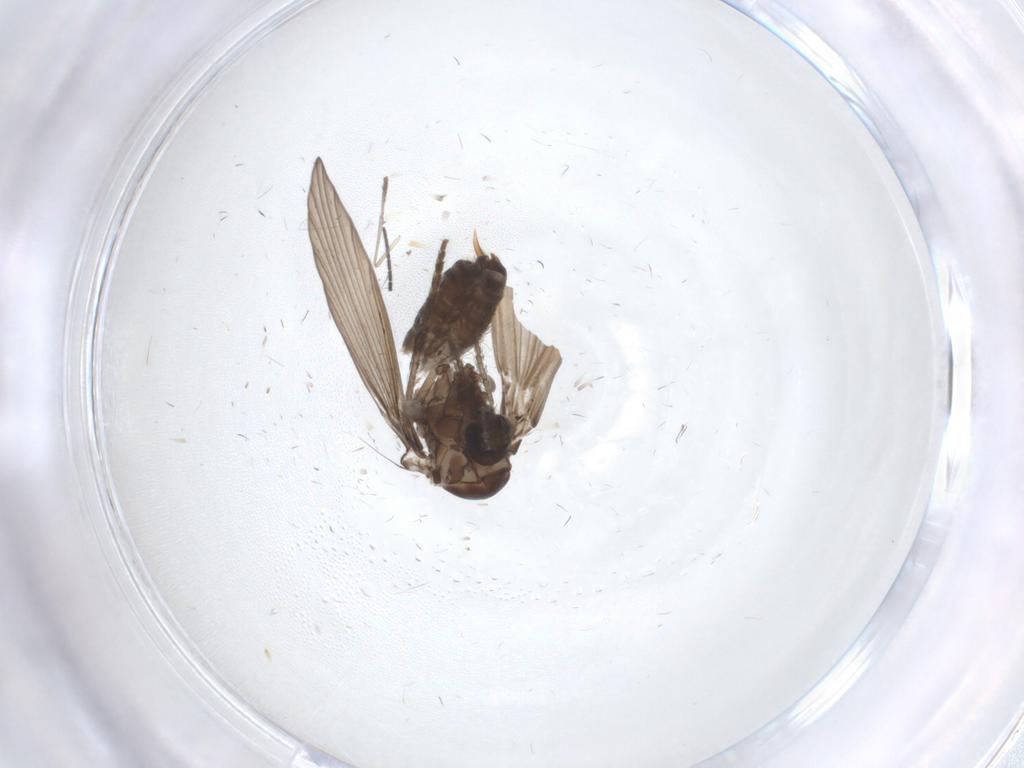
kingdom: Animalia
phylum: Arthropoda
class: Insecta
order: Diptera
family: Psychodidae
